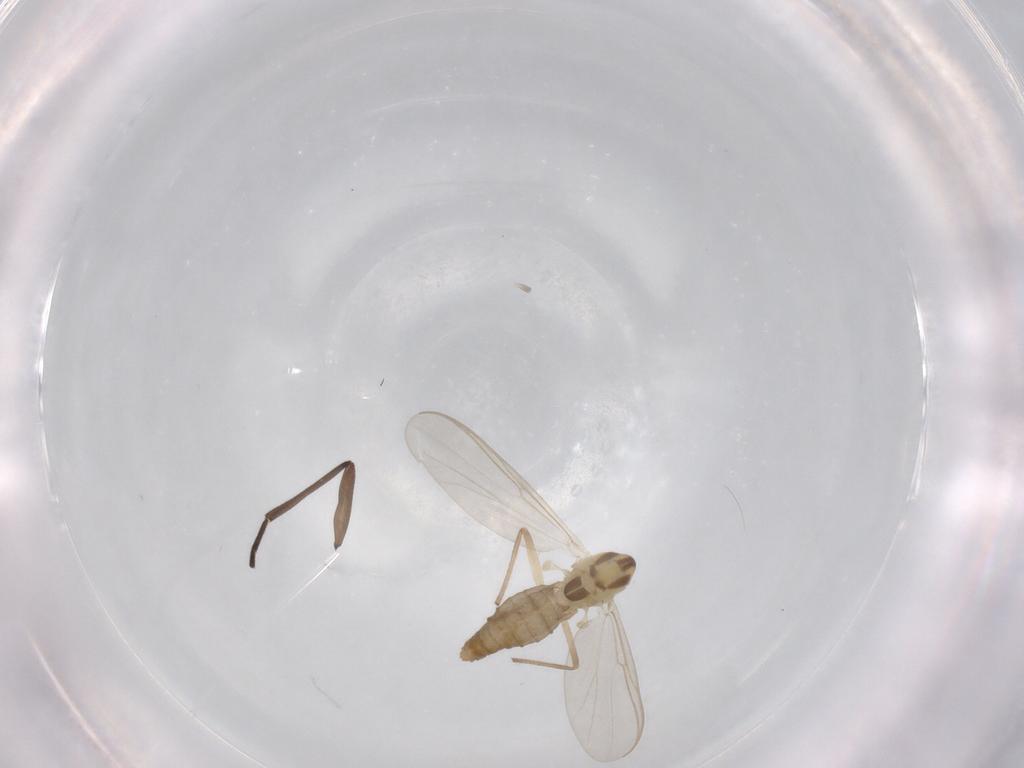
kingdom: Animalia
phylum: Arthropoda
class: Insecta
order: Diptera
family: Chironomidae
